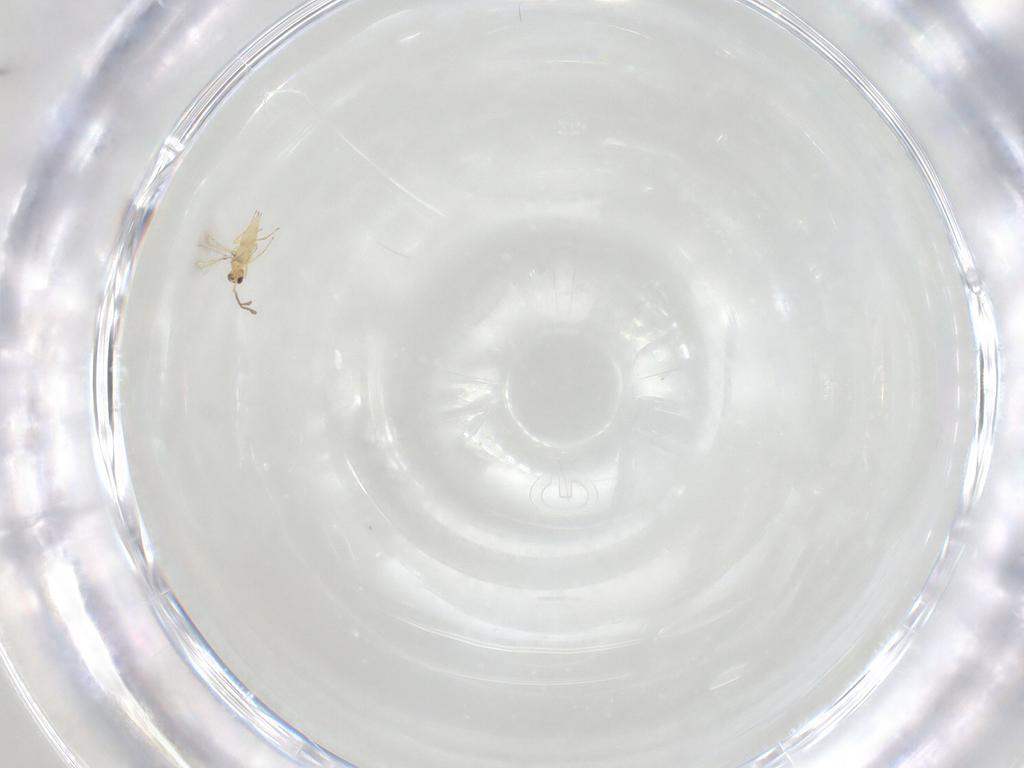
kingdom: Animalia
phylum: Arthropoda
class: Insecta
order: Hymenoptera
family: Mymaridae
